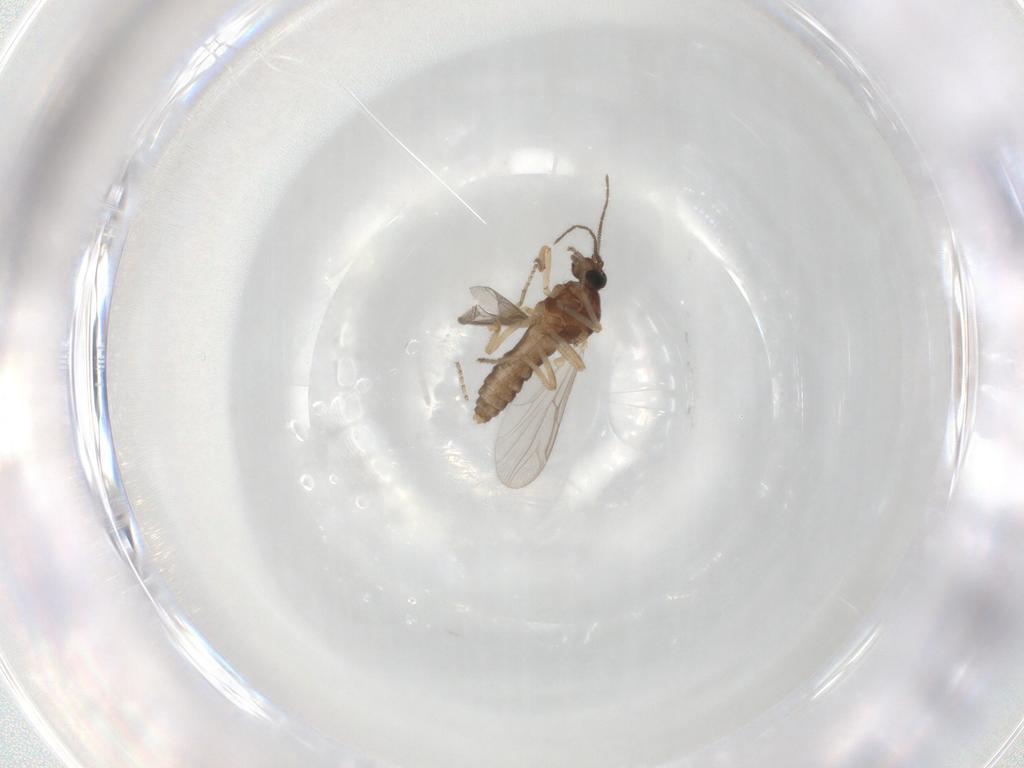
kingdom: Animalia
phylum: Arthropoda
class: Insecta
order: Diptera
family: Ceratopogonidae
